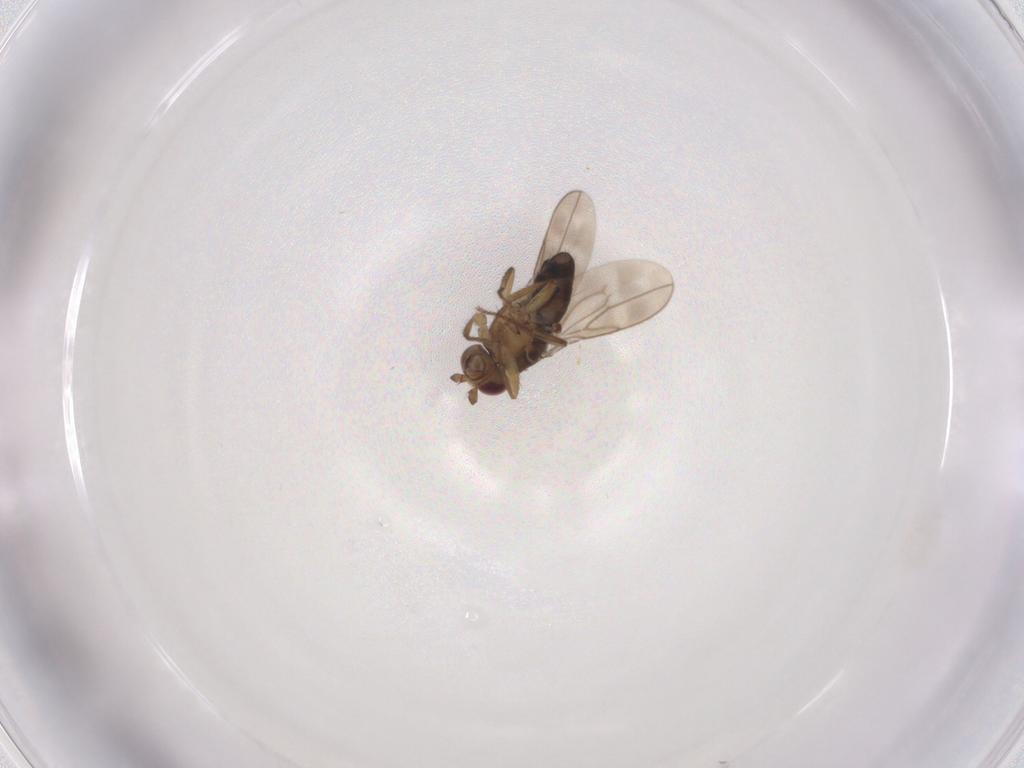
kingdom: Animalia
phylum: Arthropoda
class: Insecta
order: Diptera
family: Sphaeroceridae
